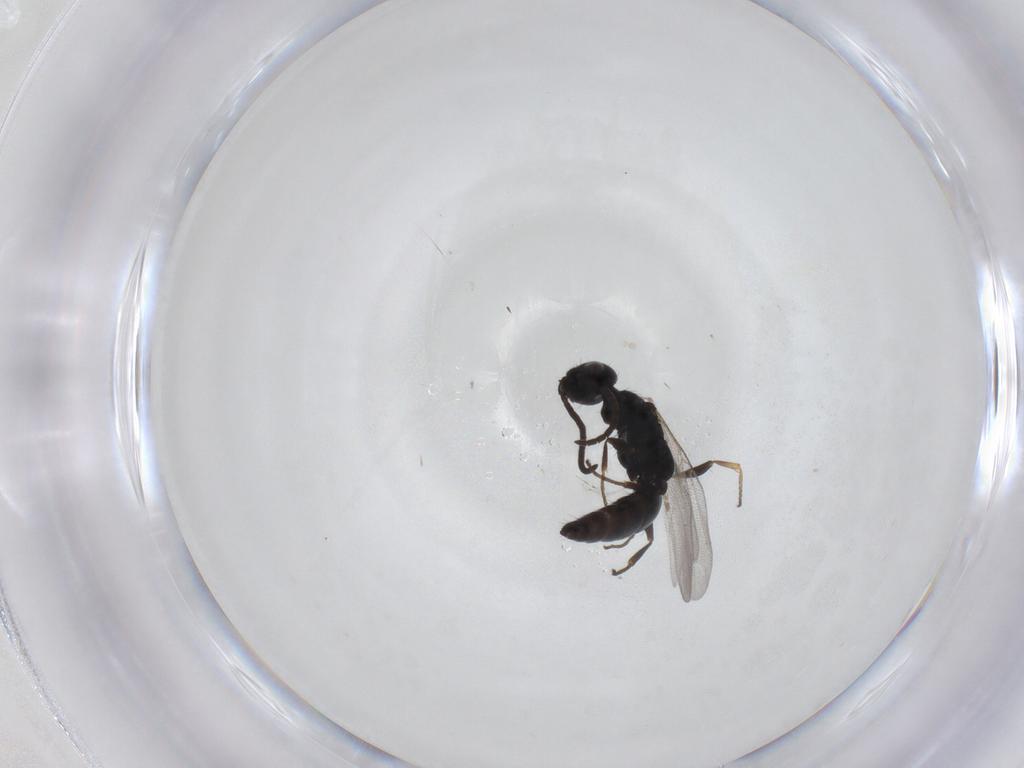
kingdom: Animalia
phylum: Arthropoda
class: Insecta
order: Hymenoptera
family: Bethylidae
